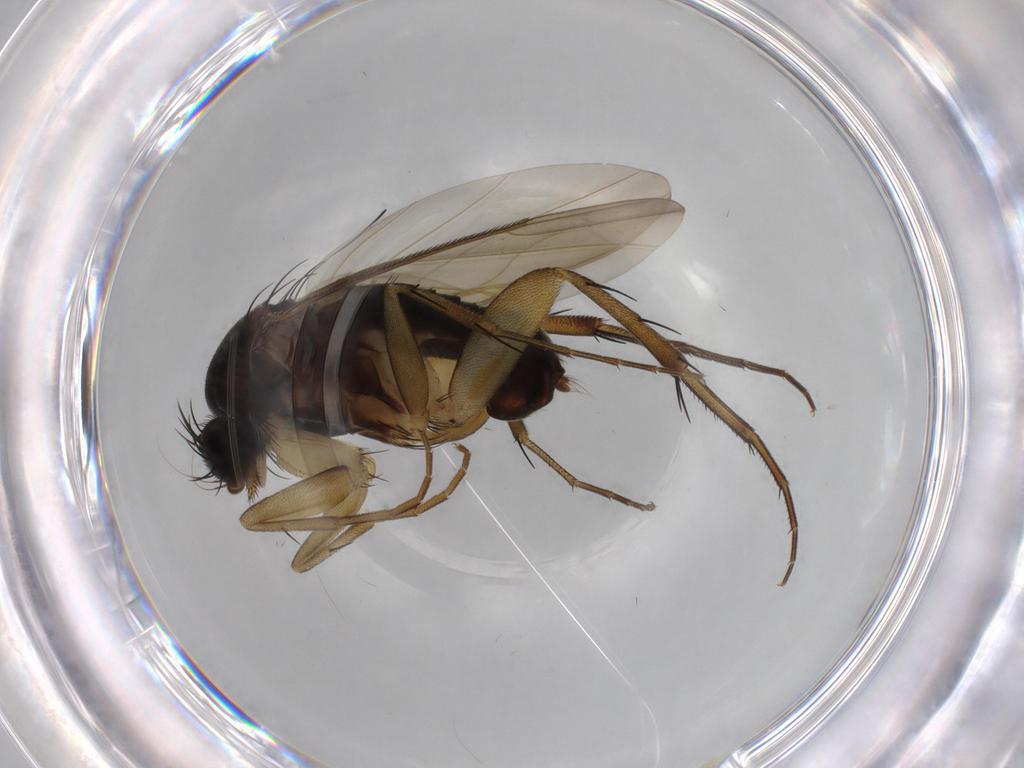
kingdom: Animalia
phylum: Arthropoda
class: Insecta
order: Diptera
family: Phoridae
